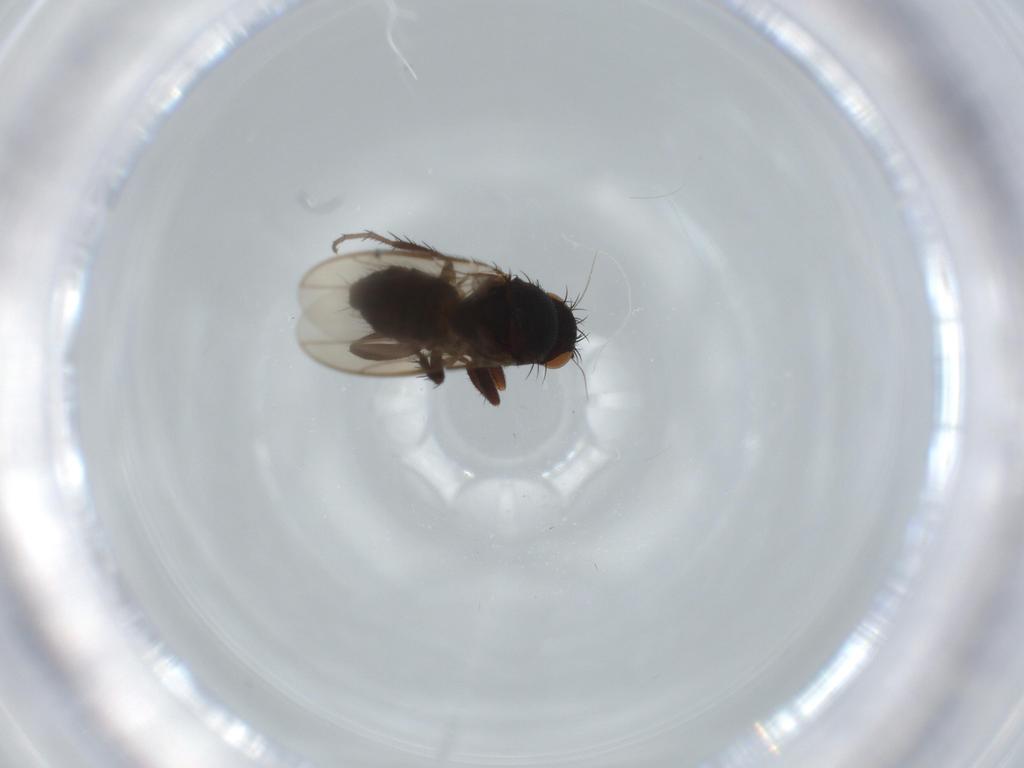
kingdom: Animalia
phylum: Arthropoda
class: Insecta
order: Diptera
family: Sphaeroceridae
